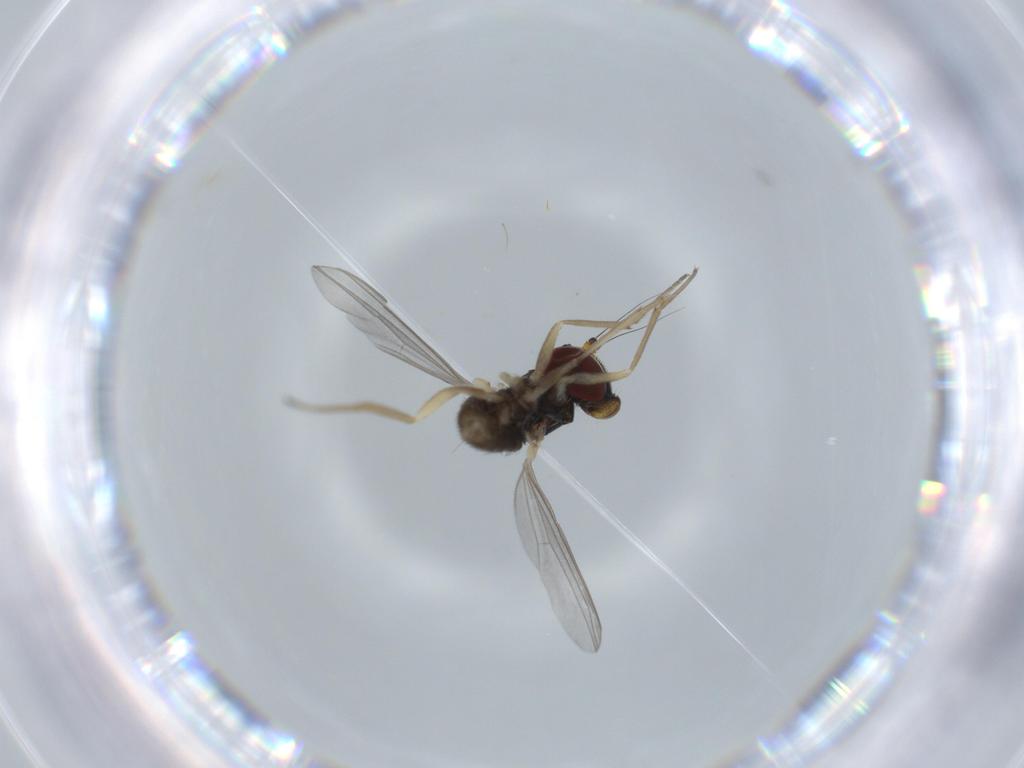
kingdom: Animalia
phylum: Arthropoda
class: Insecta
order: Diptera
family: Dolichopodidae
